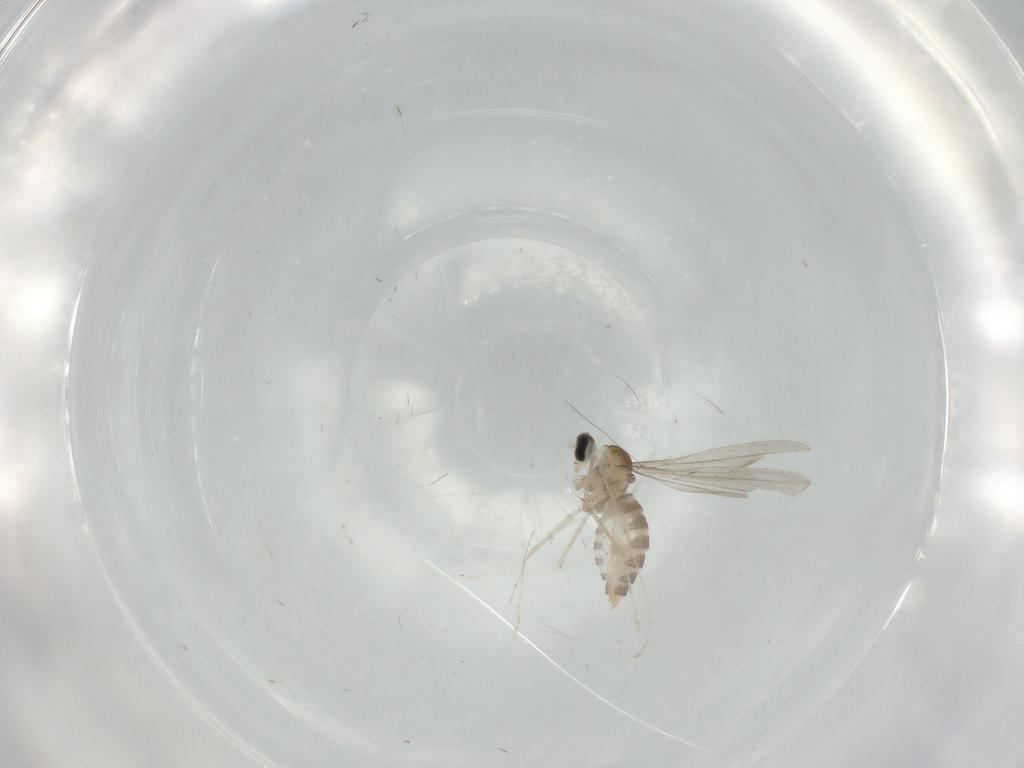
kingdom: Animalia
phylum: Arthropoda
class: Insecta
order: Diptera
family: Cecidomyiidae
